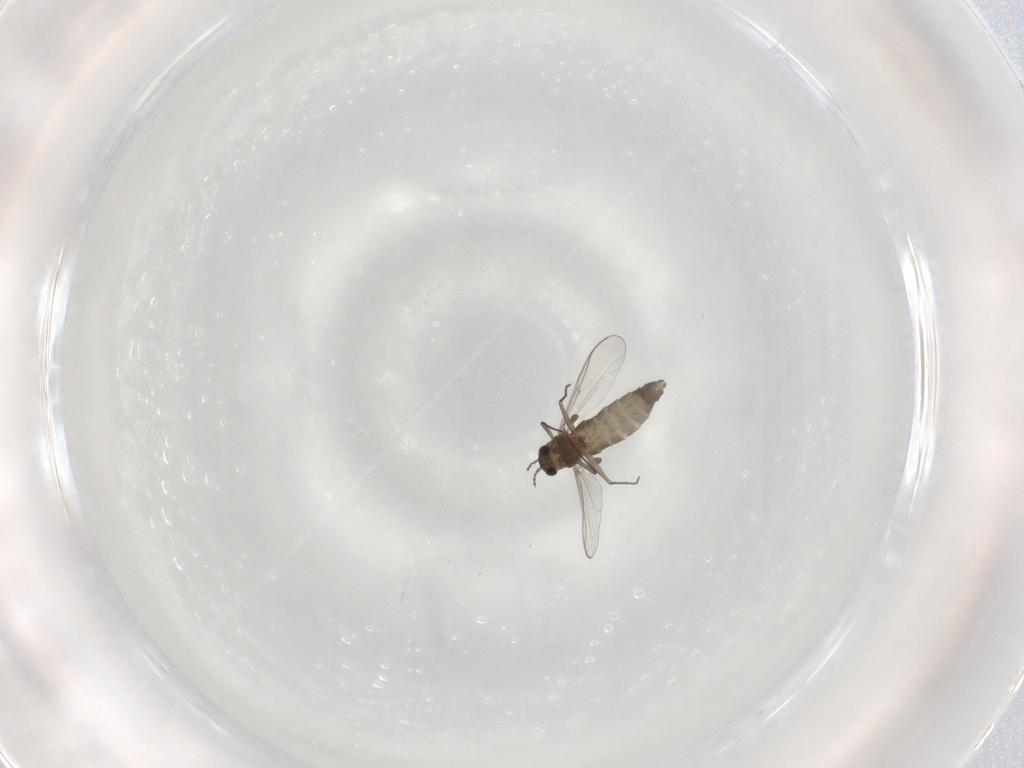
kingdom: Animalia
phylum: Arthropoda
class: Insecta
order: Diptera
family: Chironomidae
